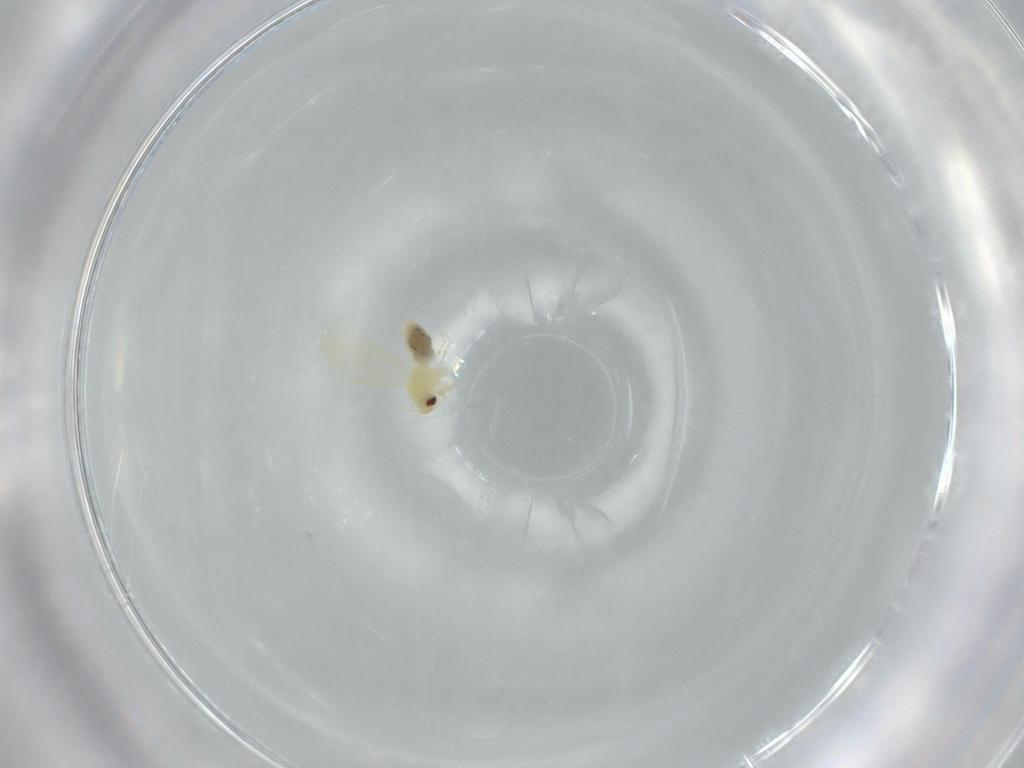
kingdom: Animalia
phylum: Arthropoda
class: Insecta
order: Hemiptera
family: Aleyrodidae
